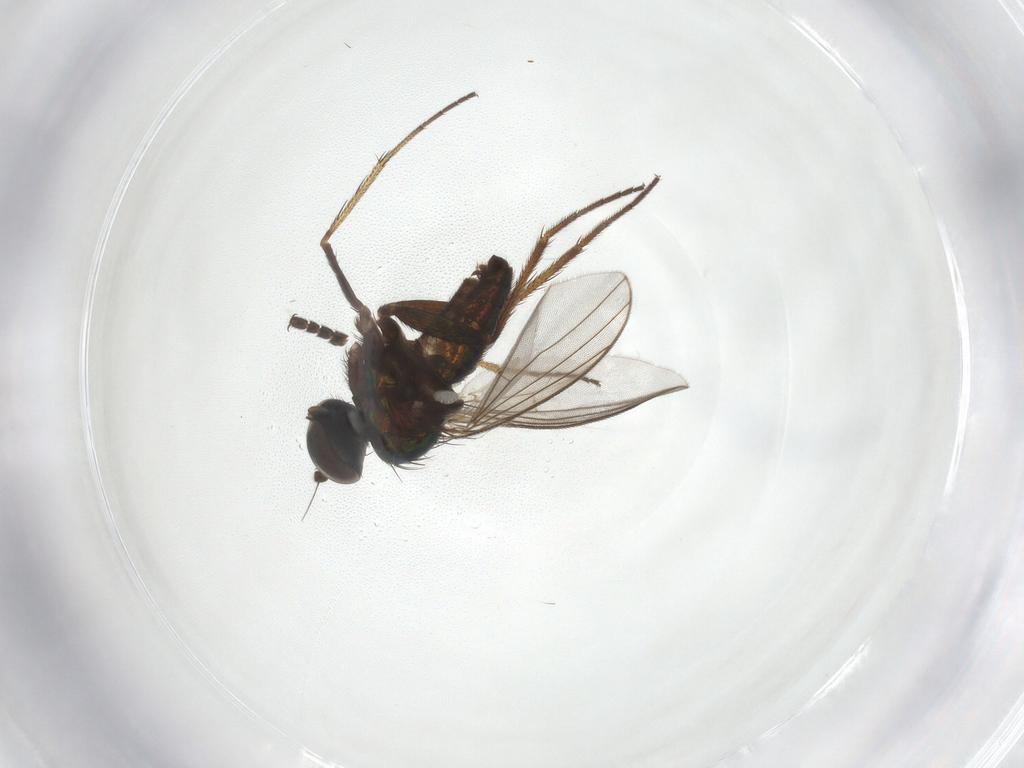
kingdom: Animalia
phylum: Arthropoda
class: Insecta
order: Diptera
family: Dolichopodidae
